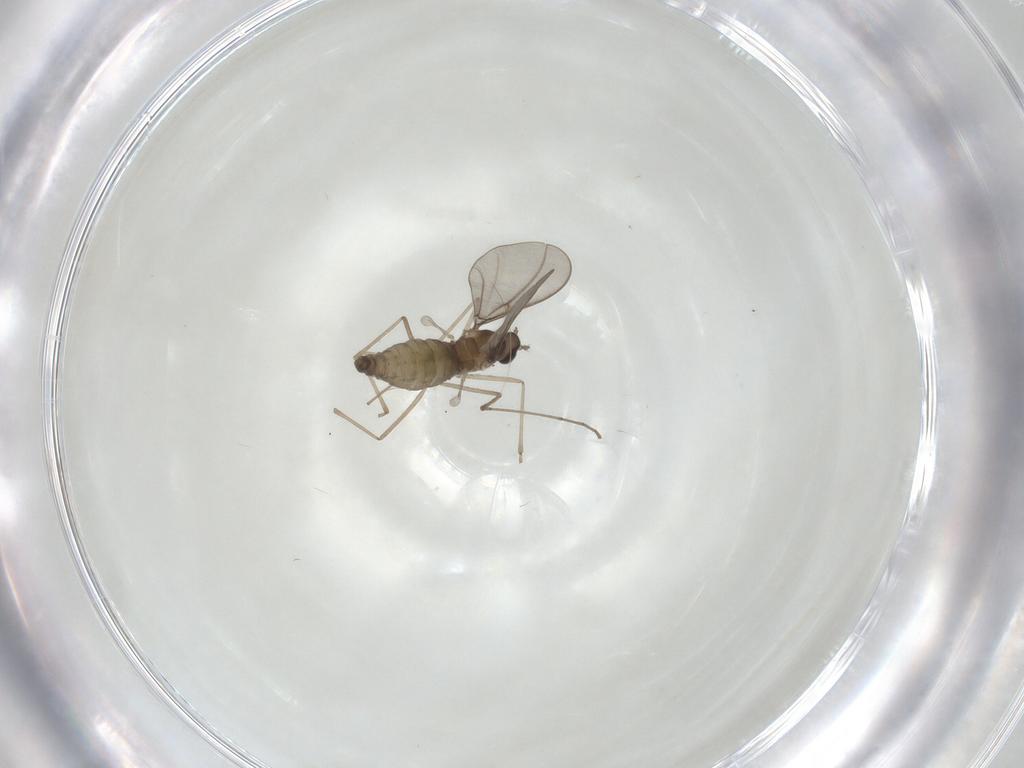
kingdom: Animalia
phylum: Arthropoda
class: Insecta
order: Diptera
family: Cecidomyiidae
